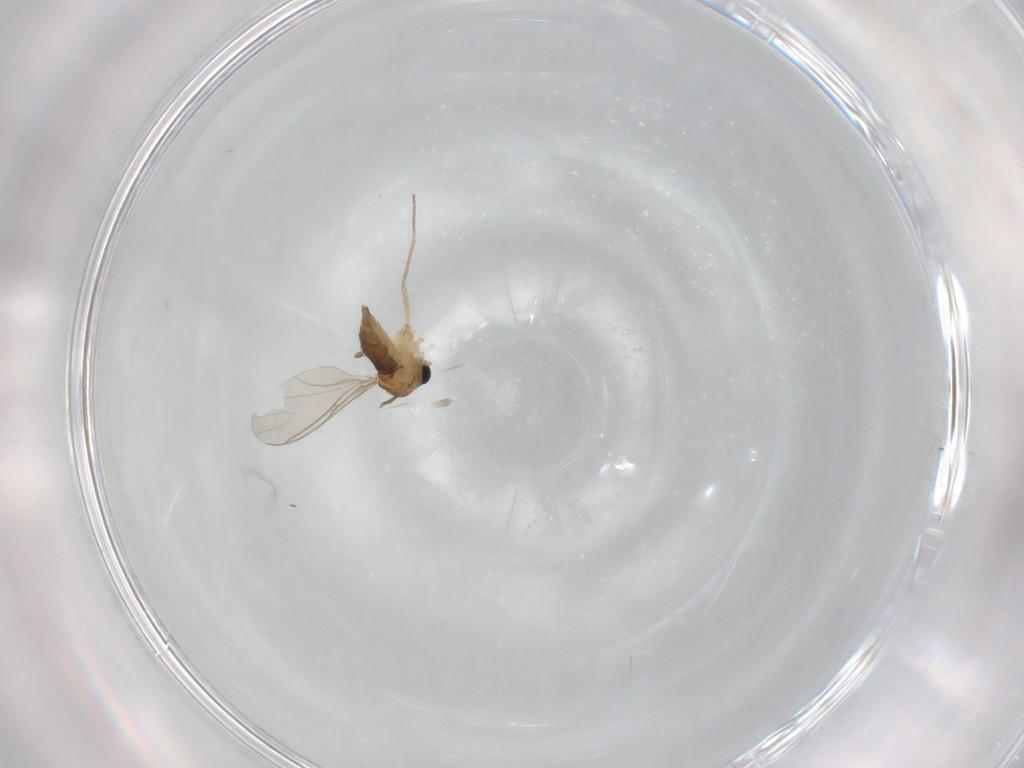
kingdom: Animalia
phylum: Arthropoda
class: Insecta
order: Diptera
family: Sciaridae
